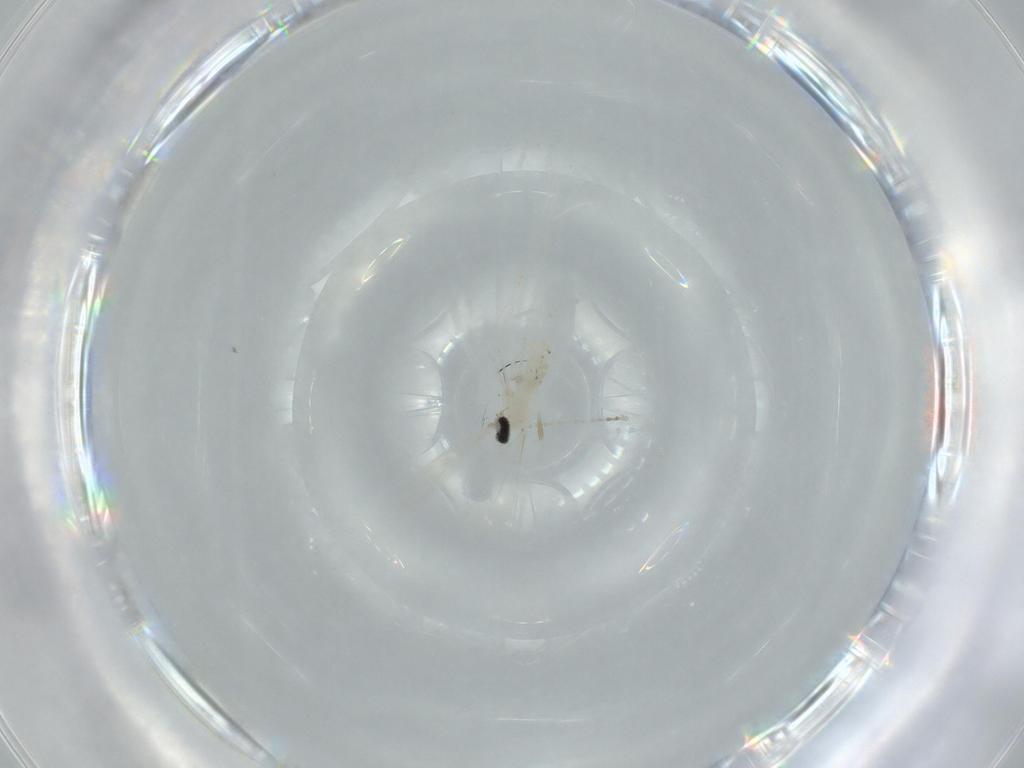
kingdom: Animalia
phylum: Arthropoda
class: Insecta
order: Diptera
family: Cecidomyiidae
